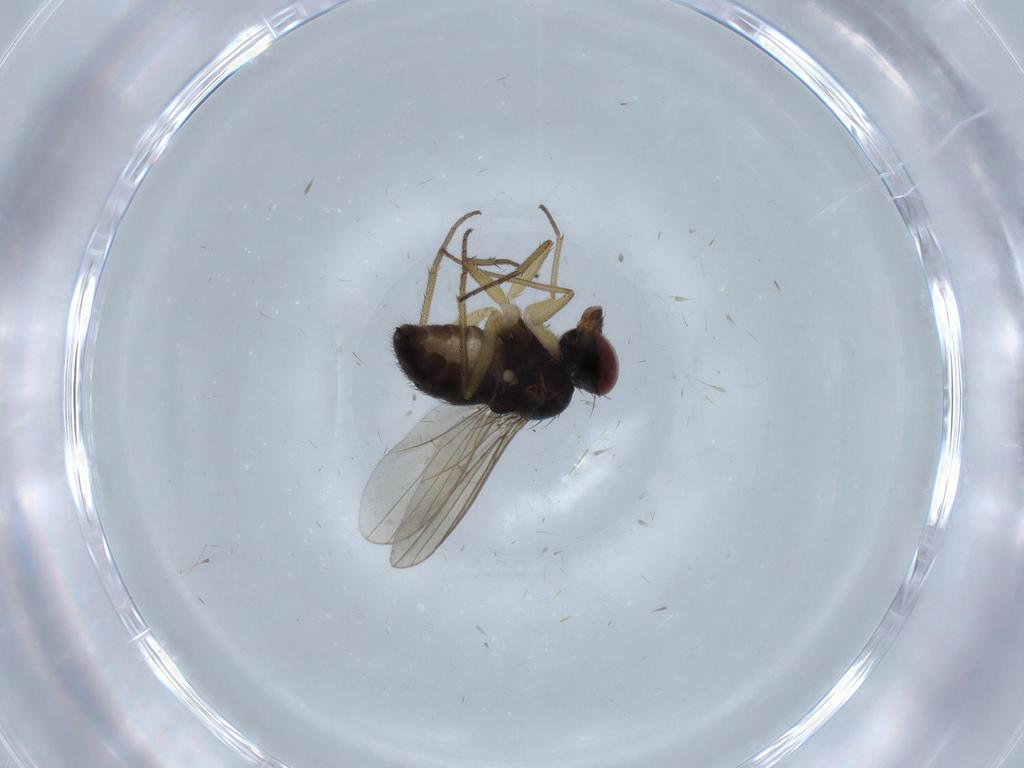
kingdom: Animalia
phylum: Arthropoda
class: Insecta
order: Diptera
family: Dolichopodidae
